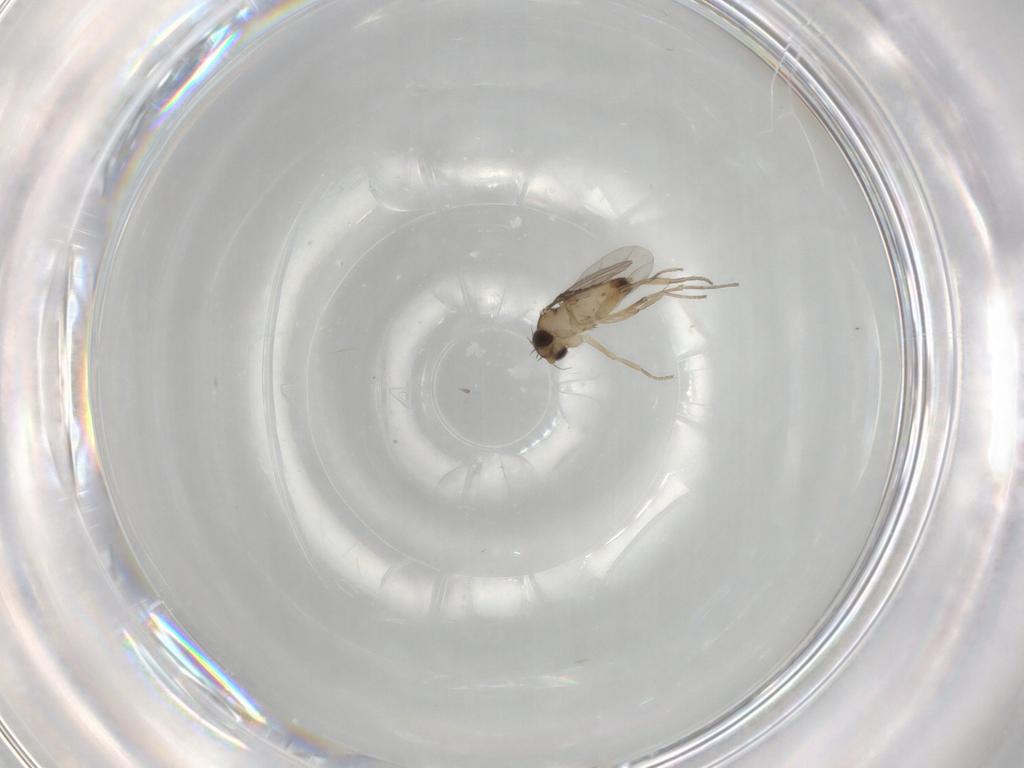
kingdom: Animalia
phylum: Arthropoda
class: Insecta
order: Diptera
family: Phoridae
